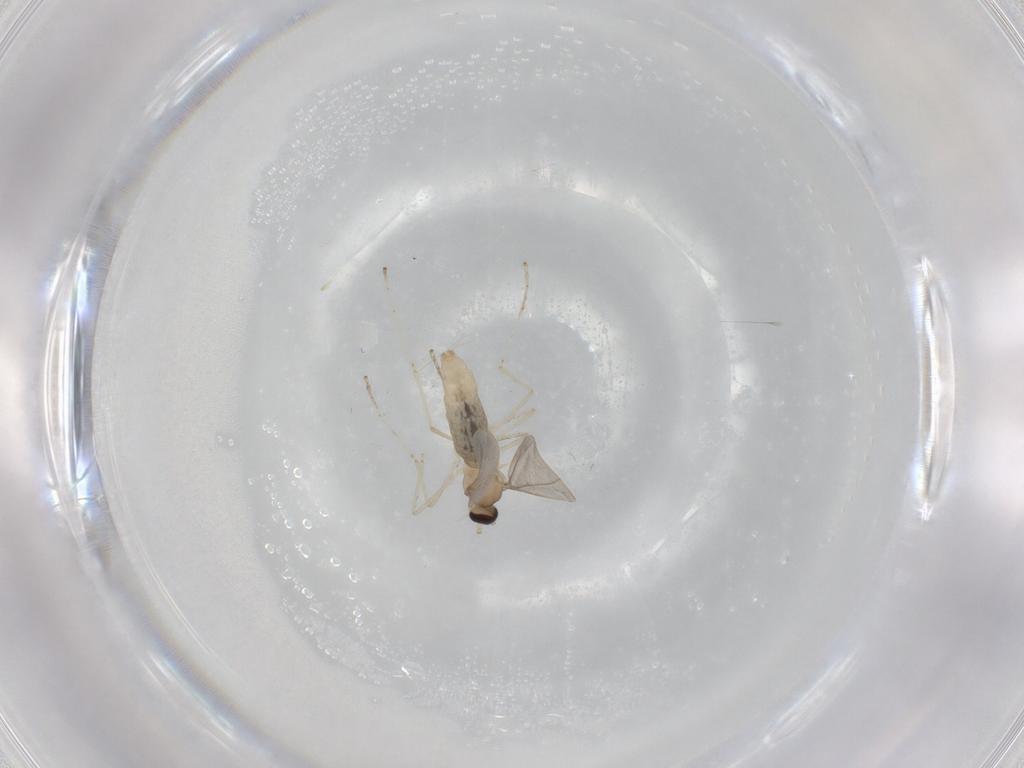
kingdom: Animalia
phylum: Arthropoda
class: Insecta
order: Diptera
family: Cecidomyiidae
